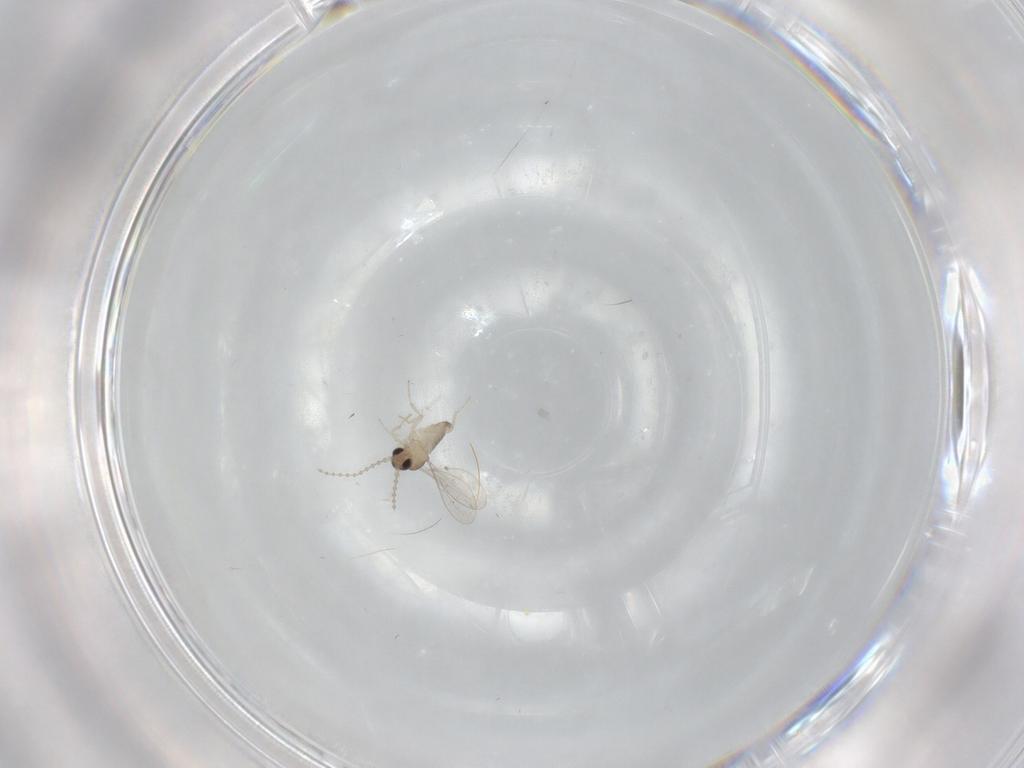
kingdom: Animalia
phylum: Arthropoda
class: Insecta
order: Diptera
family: Cecidomyiidae
